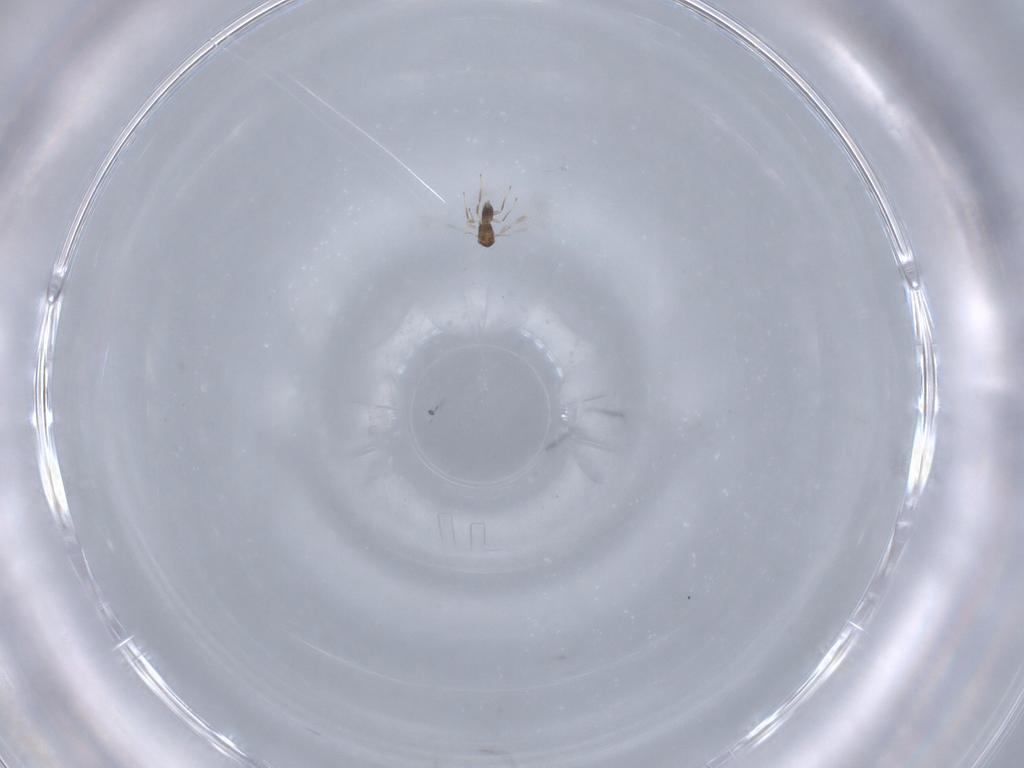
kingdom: Animalia
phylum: Arthropoda
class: Insecta
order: Hymenoptera
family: Mymaridae
